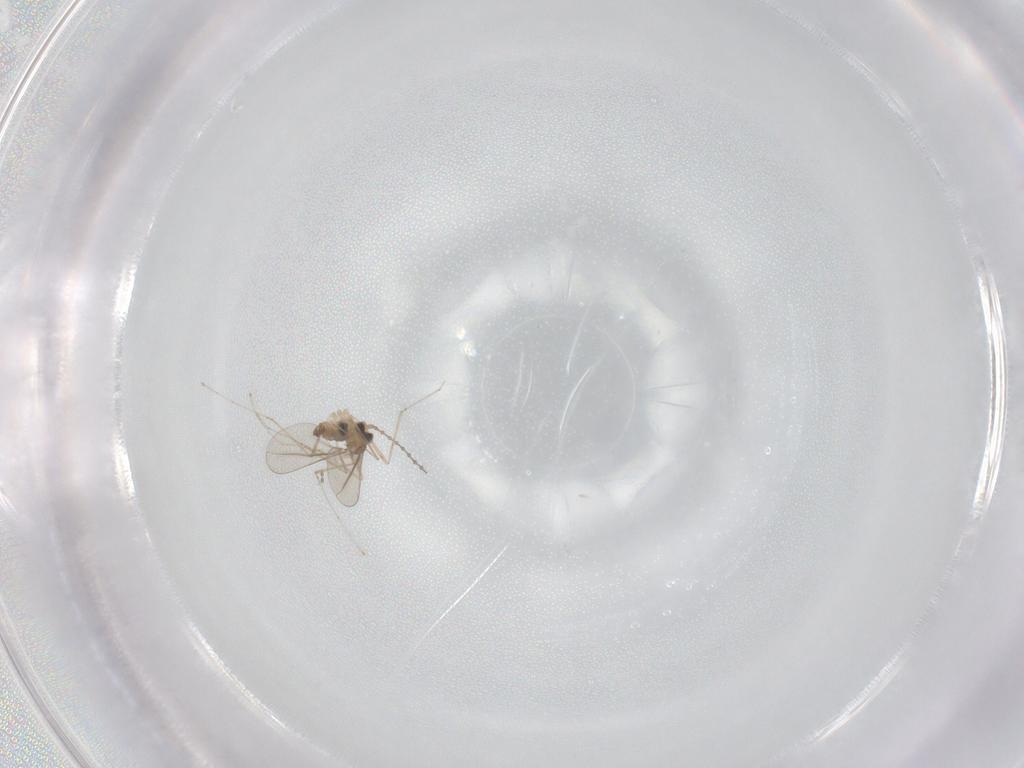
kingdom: Animalia
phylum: Arthropoda
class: Insecta
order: Diptera
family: Cecidomyiidae
